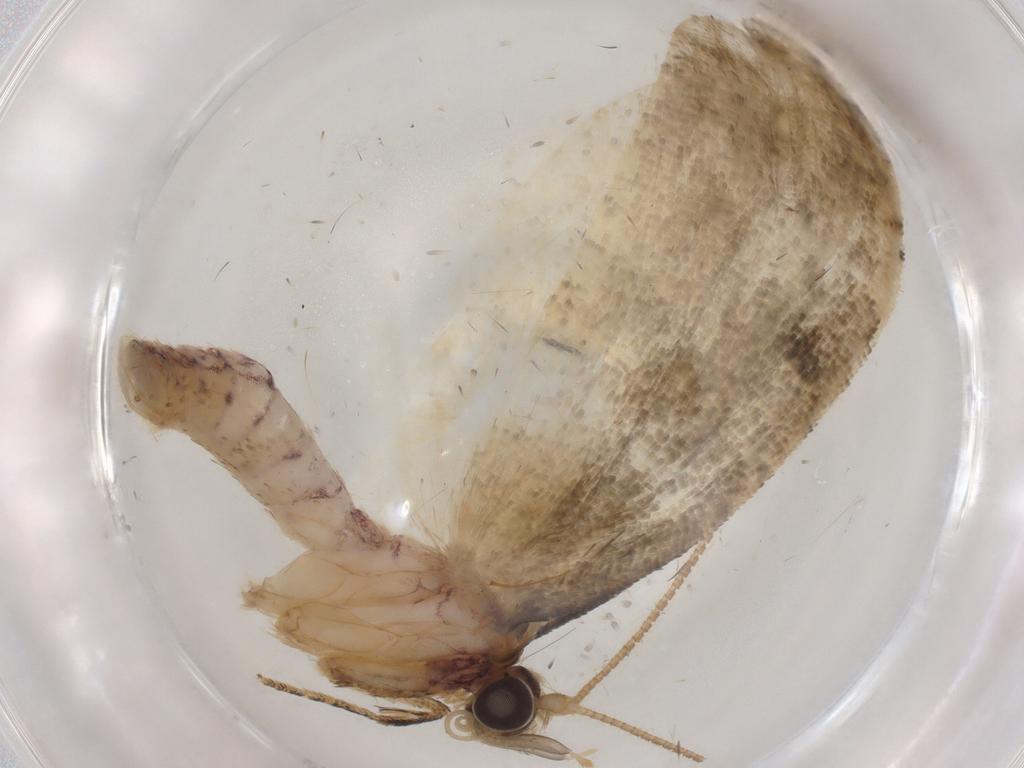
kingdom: Animalia
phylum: Arthropoda
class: Insecta
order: Lepidoptera
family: Tortricidae
